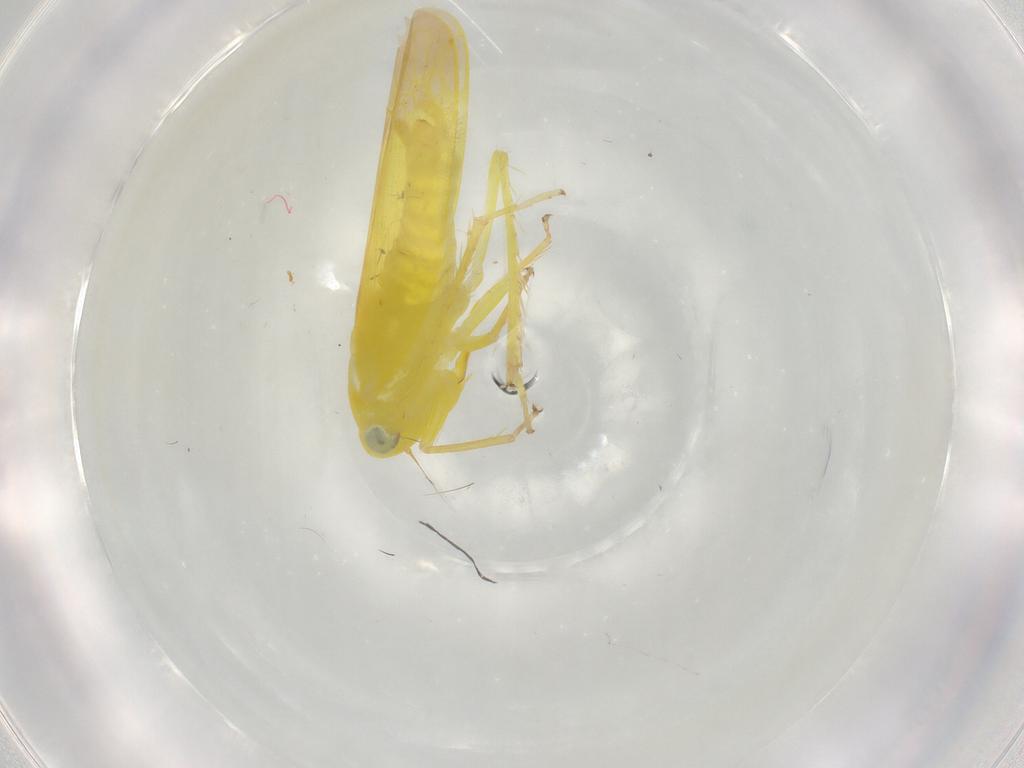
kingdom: Animalia
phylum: Arthropoda
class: Insecta
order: Hemiptera
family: Cicadellidae
